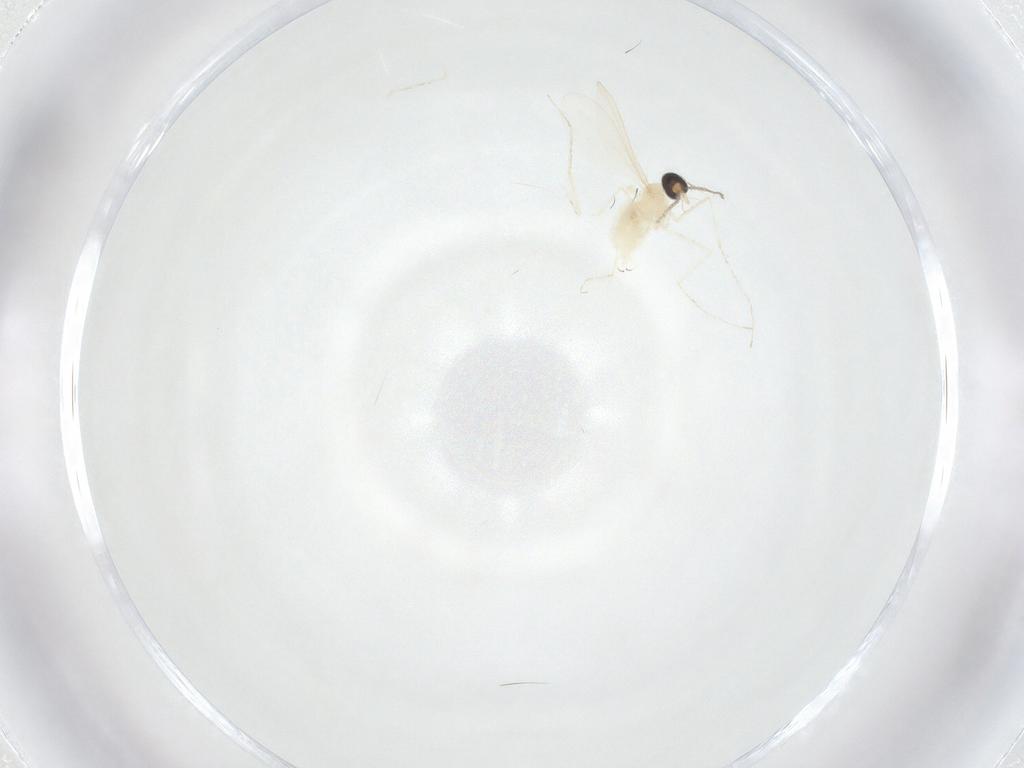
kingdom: Animalia
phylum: Arthropoda
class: Insecta
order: Diptera
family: Cecidomyiidae
